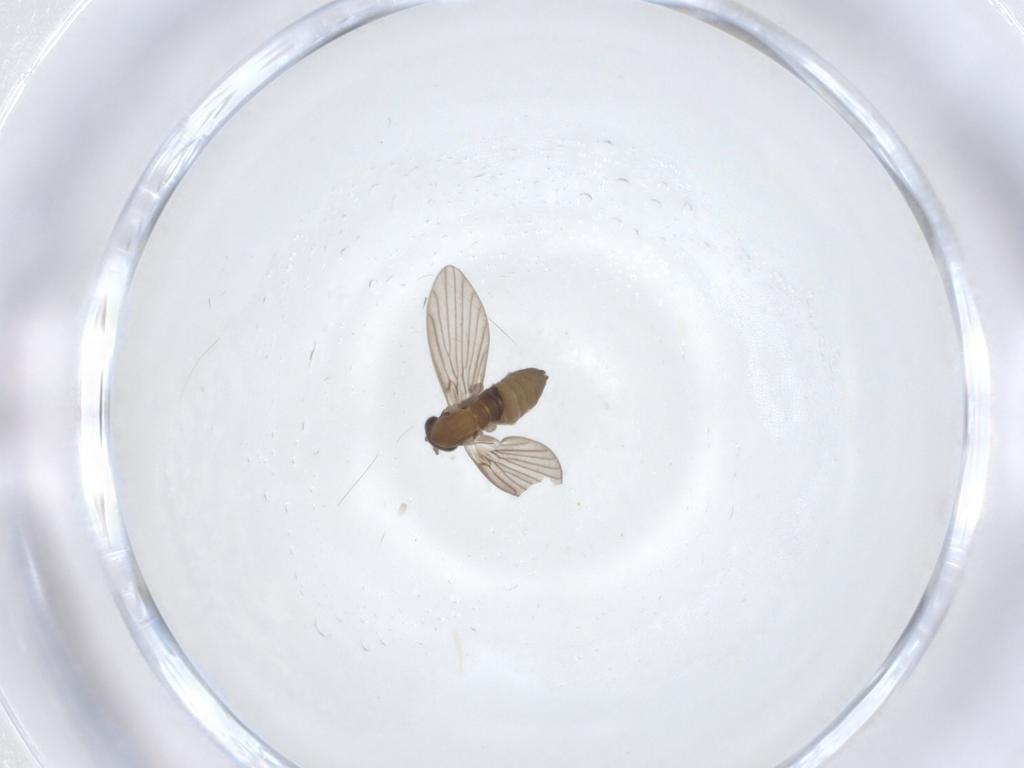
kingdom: Animalia
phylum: Arthropoda
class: Insecta
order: Diptera
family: Psychodidae
